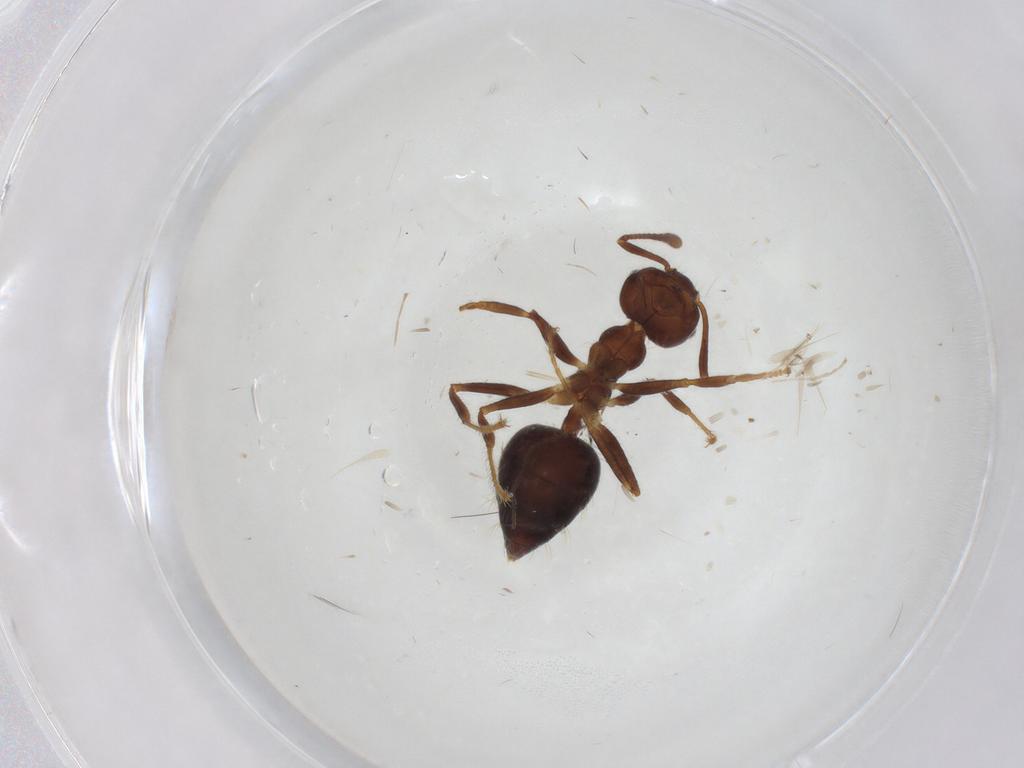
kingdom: Animalia
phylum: Arthropoda
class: Insecta
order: Hymenoptera
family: Formicidae
